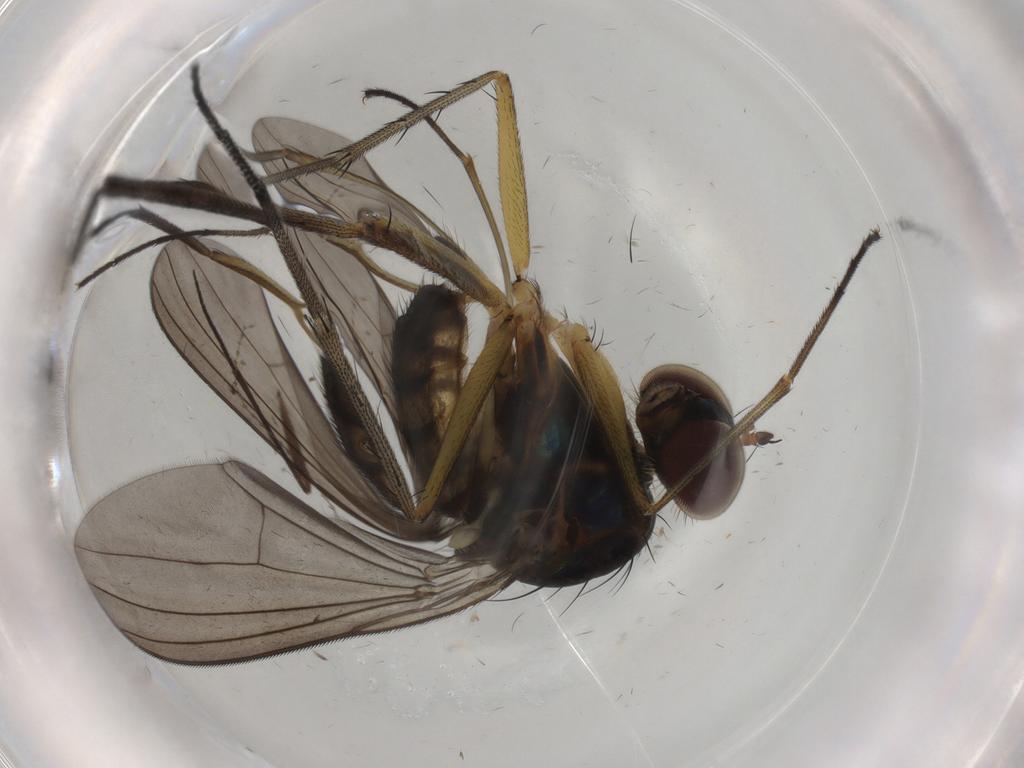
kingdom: Animalia
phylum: Arthropoda
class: Insecta
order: Diptera
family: Dolichopodidae
